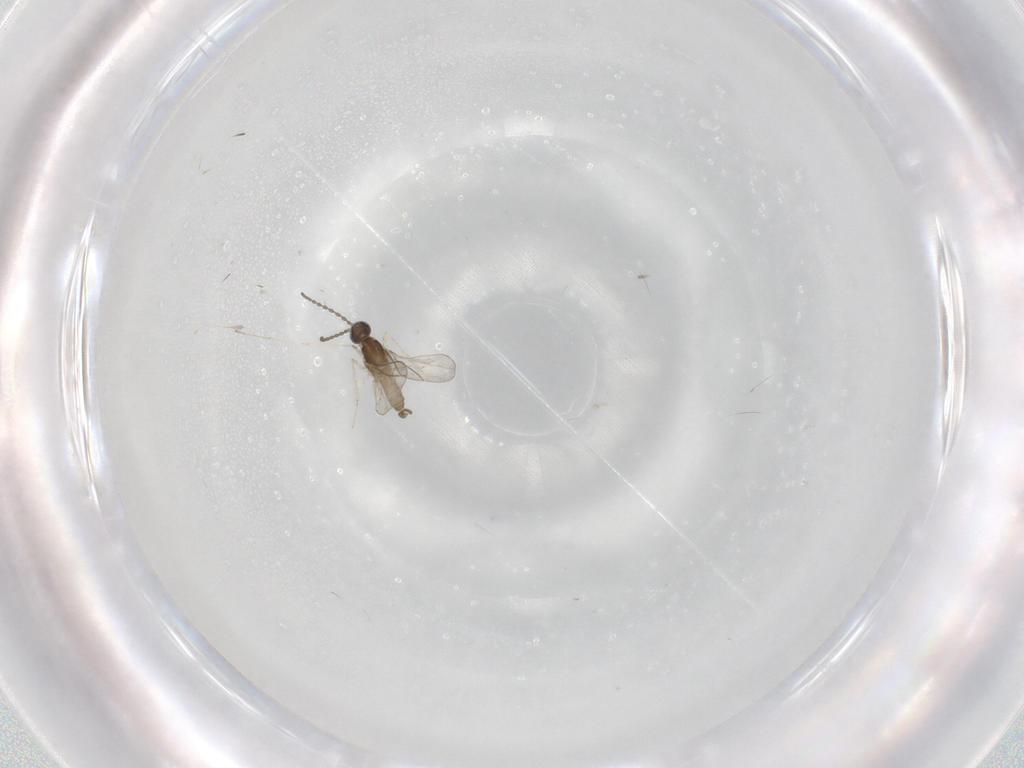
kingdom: Animalia
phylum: Arthropoda
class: Insecta
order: Diptera
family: Cecidomyiidae
